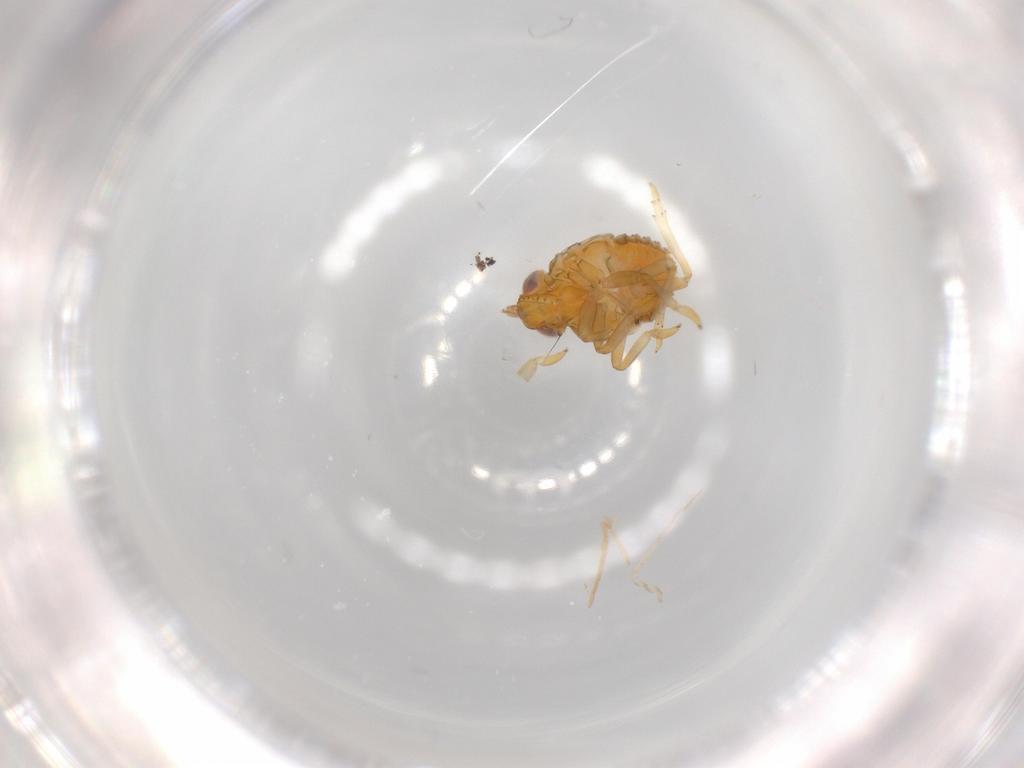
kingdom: Animalia
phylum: Arthropoda
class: Insecta
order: Hemiptera
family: Issidae
